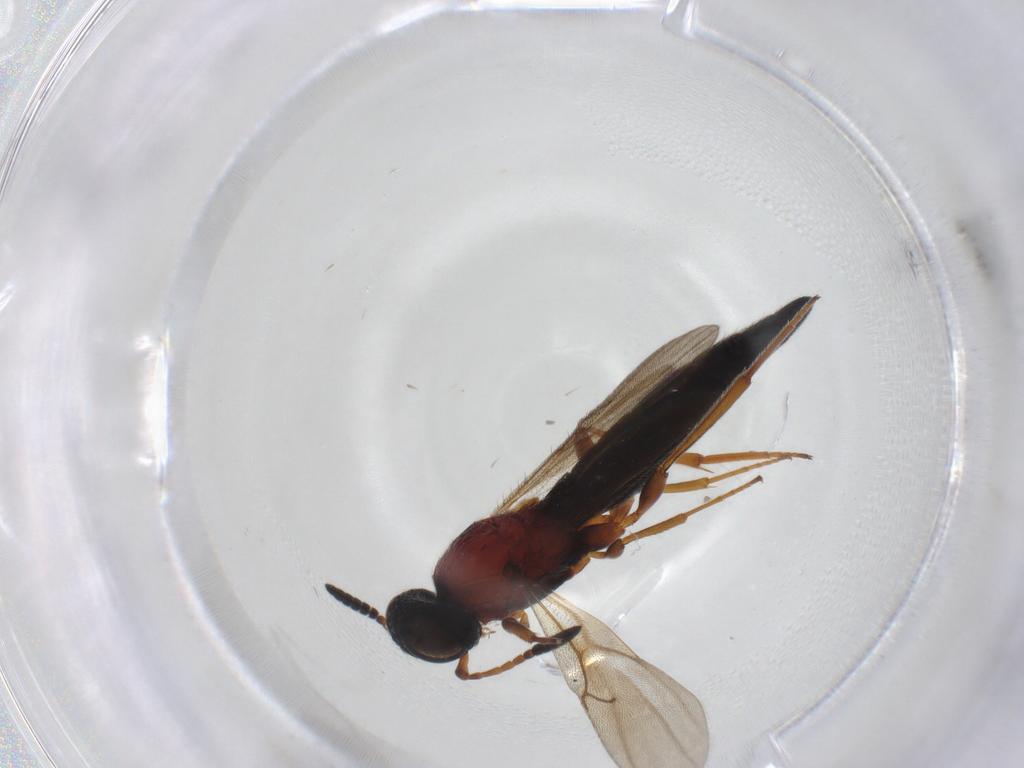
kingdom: Animalia
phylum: Arthropoda
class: Insecta
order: Hymenoptera
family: Scelionidae
